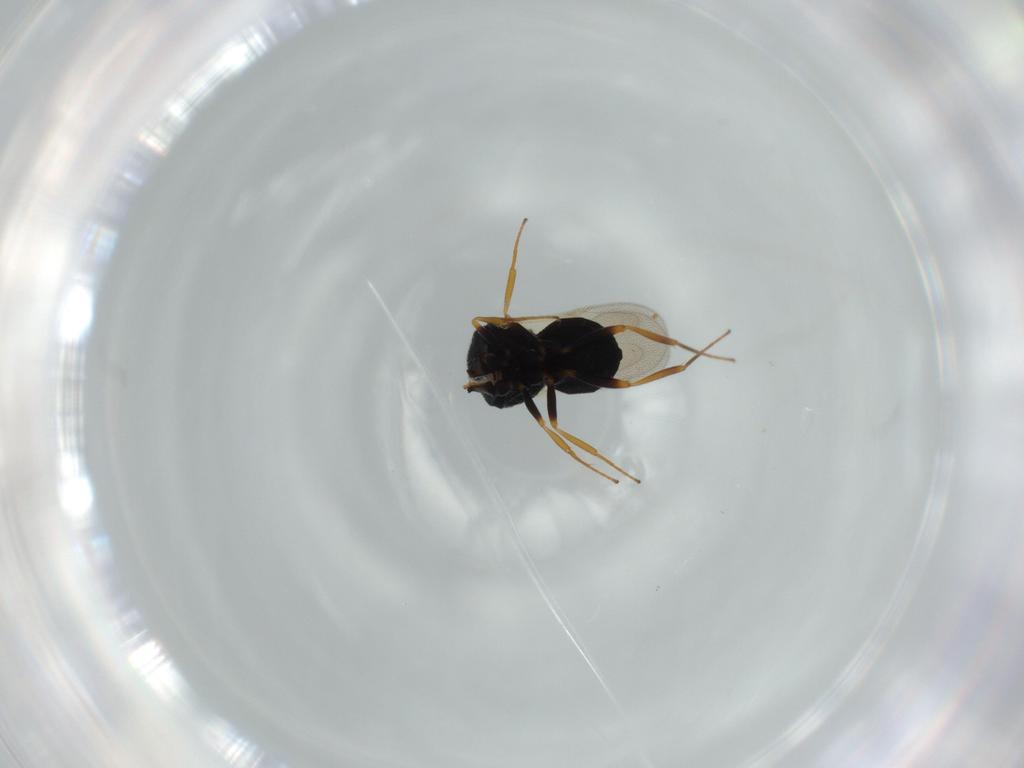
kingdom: Animalia
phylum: Arthropoda
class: Insecta
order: Hymenoptera
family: Scelionidae
